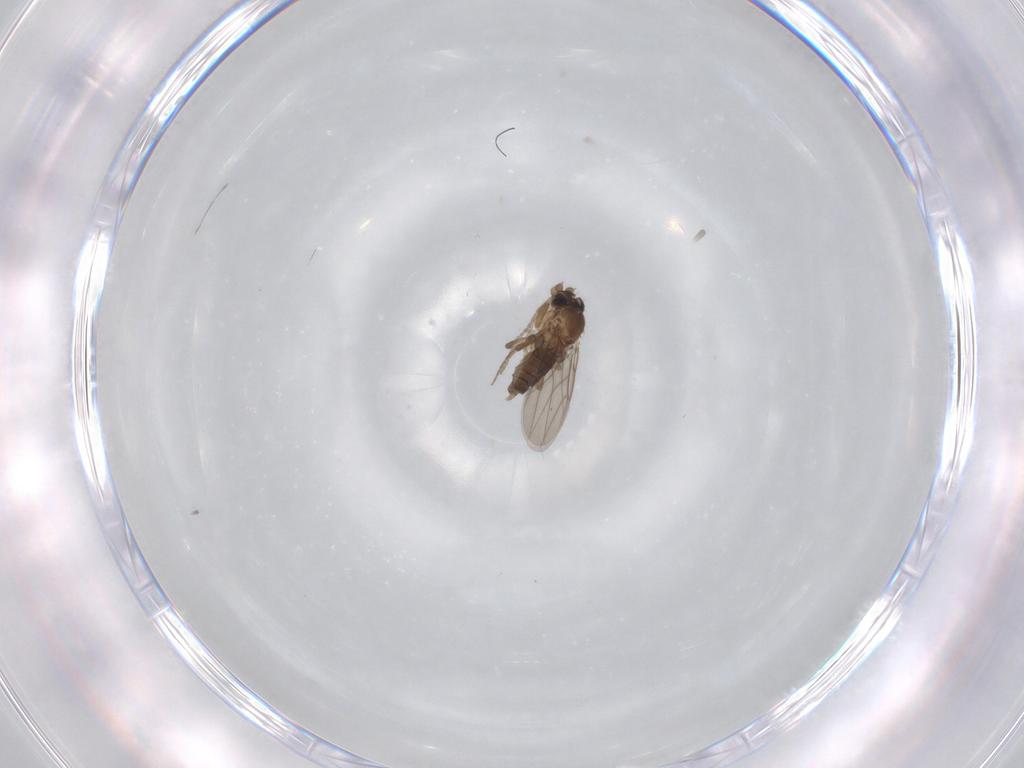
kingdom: Animalia
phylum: Arthropoda
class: Insecta
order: Diptera
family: Phoridae
